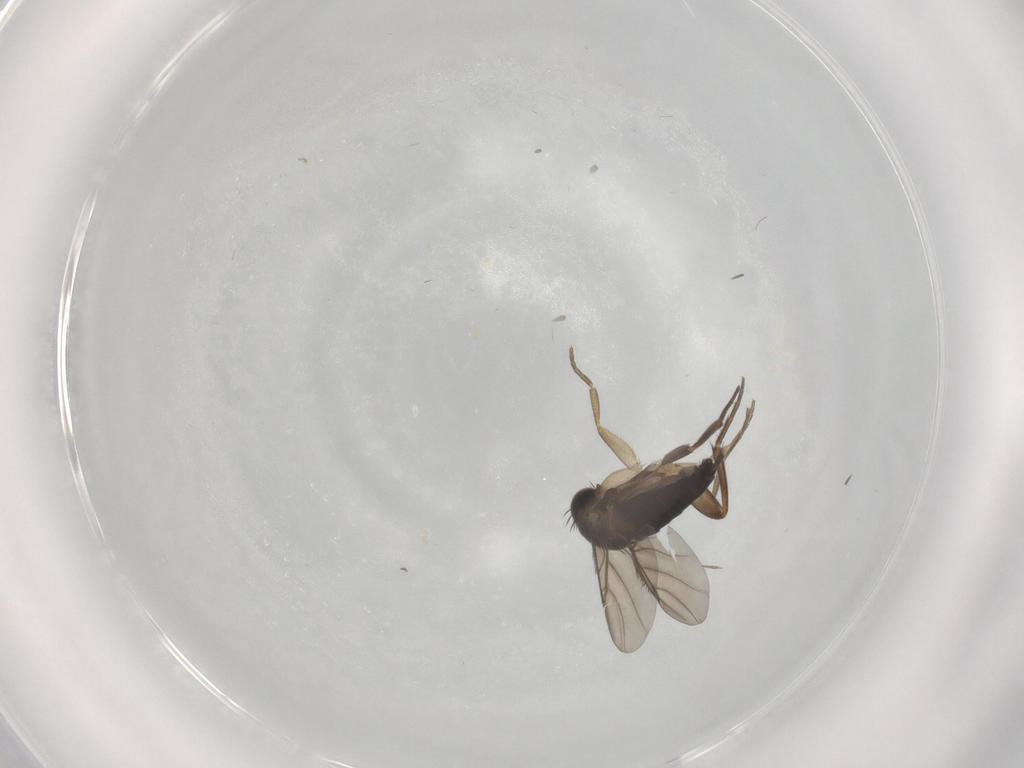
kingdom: Animalia
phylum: Arthropoda
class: Insecta
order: Diptera
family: Phoridae
